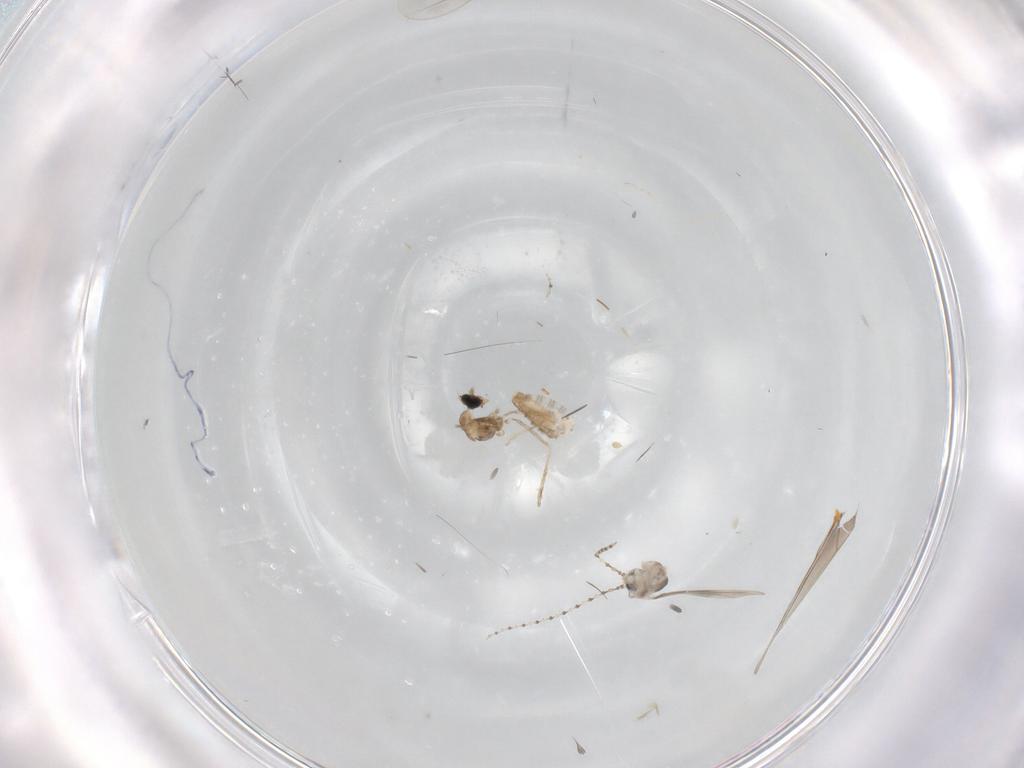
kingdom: Animalia
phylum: Arthropoda
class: Insecta
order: Diptera
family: Cecidomyiidae
